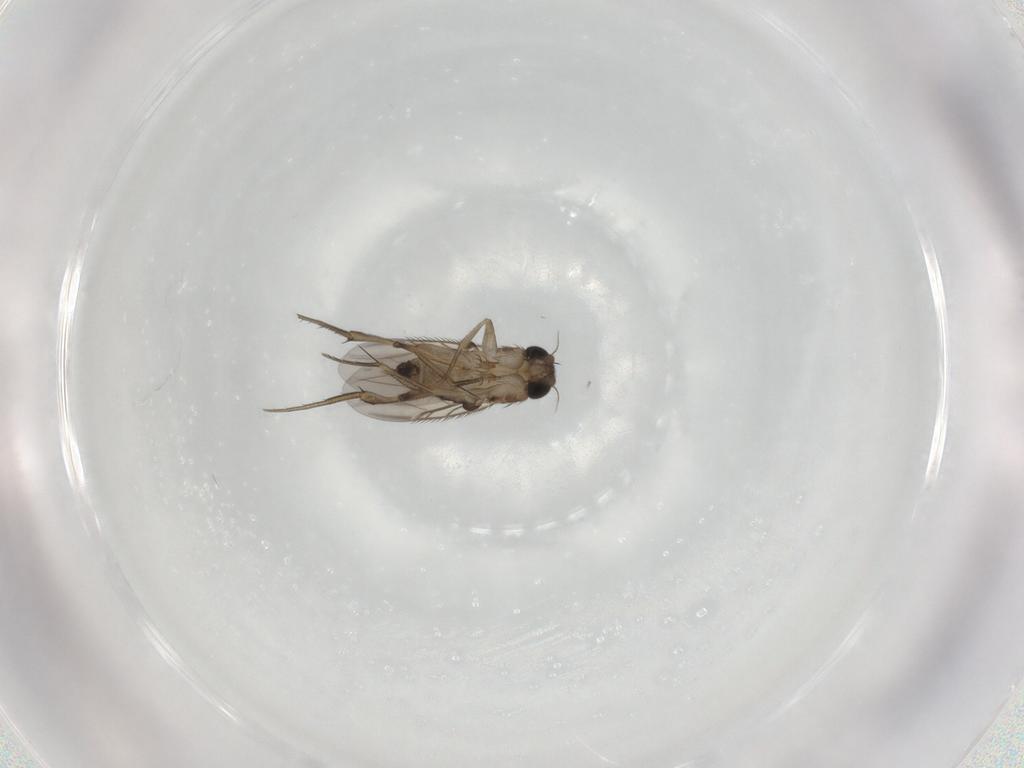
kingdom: Animalia
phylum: Arthropoda
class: Insecta
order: Diptera
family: Phoridae
